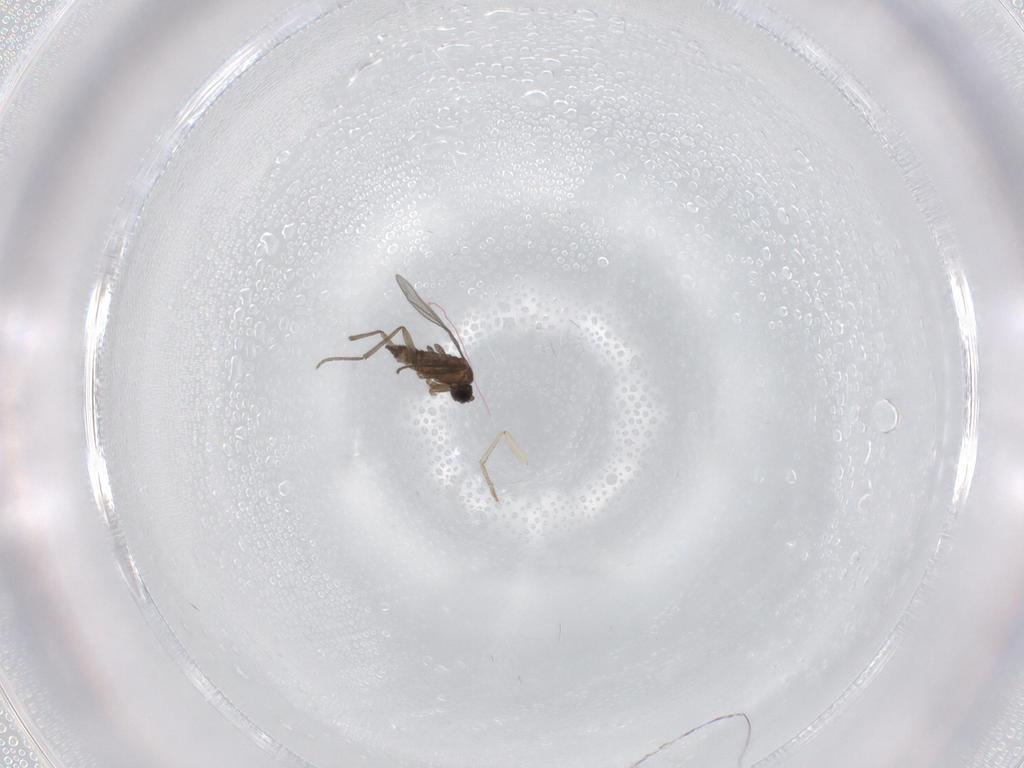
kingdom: Animalia
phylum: Arthropoda
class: Insecta
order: Diptera
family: Sciaridae
